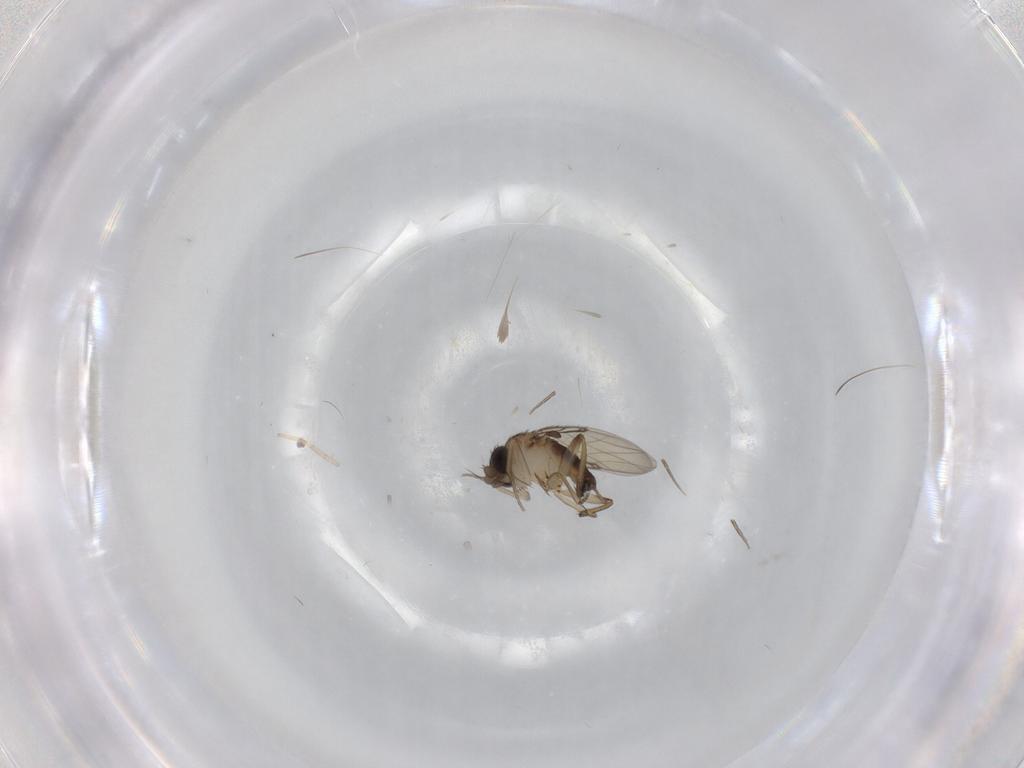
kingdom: Animalia
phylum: Arthropoda
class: Insecta
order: Diptera
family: Phoridae
